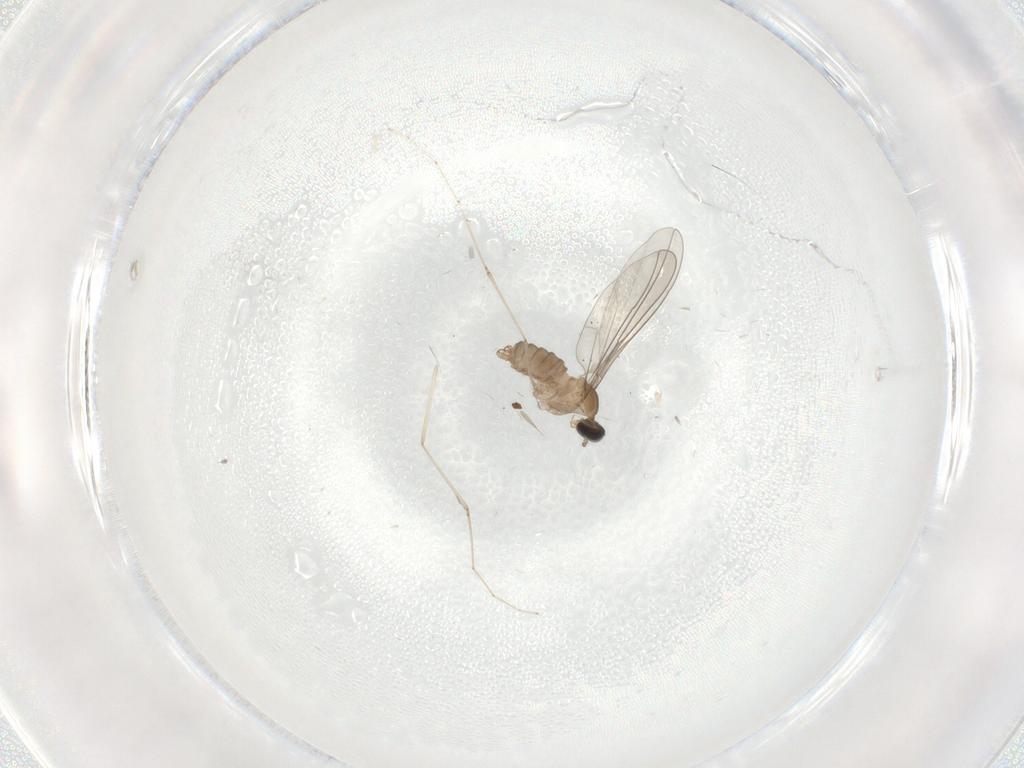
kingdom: Animalia
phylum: Arthropoda
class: Insecta
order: Diptera
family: Cecidomyiidae
